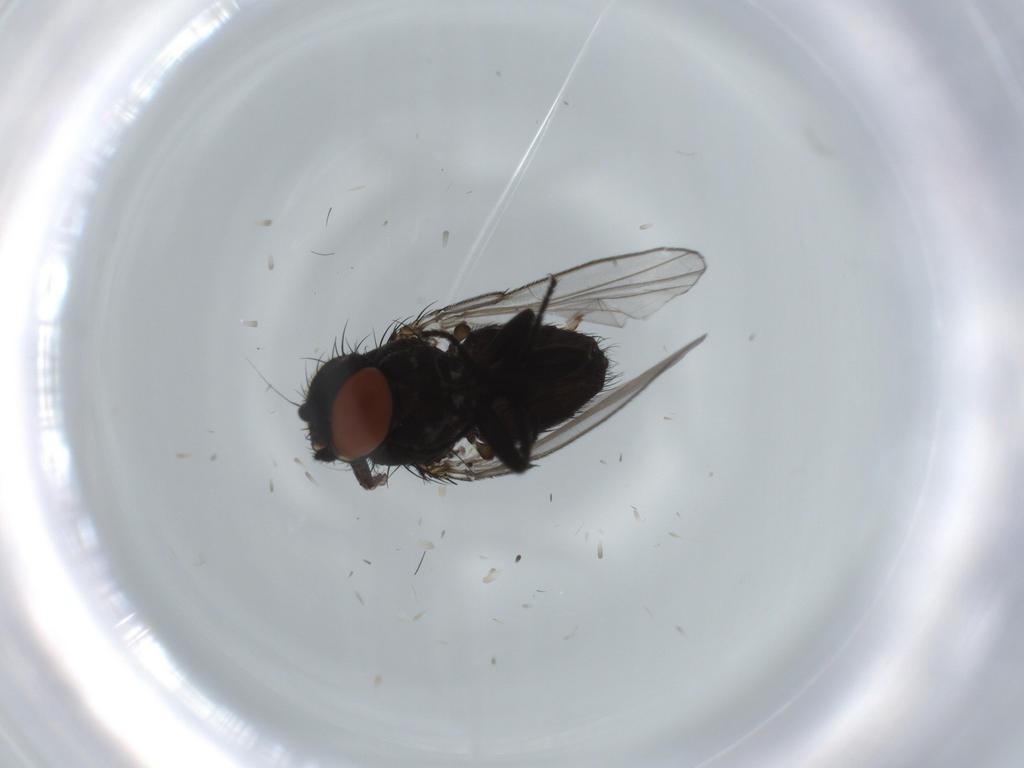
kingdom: Animalia
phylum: Arthropoda
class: Insecta
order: Diptera
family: Milichiidae
